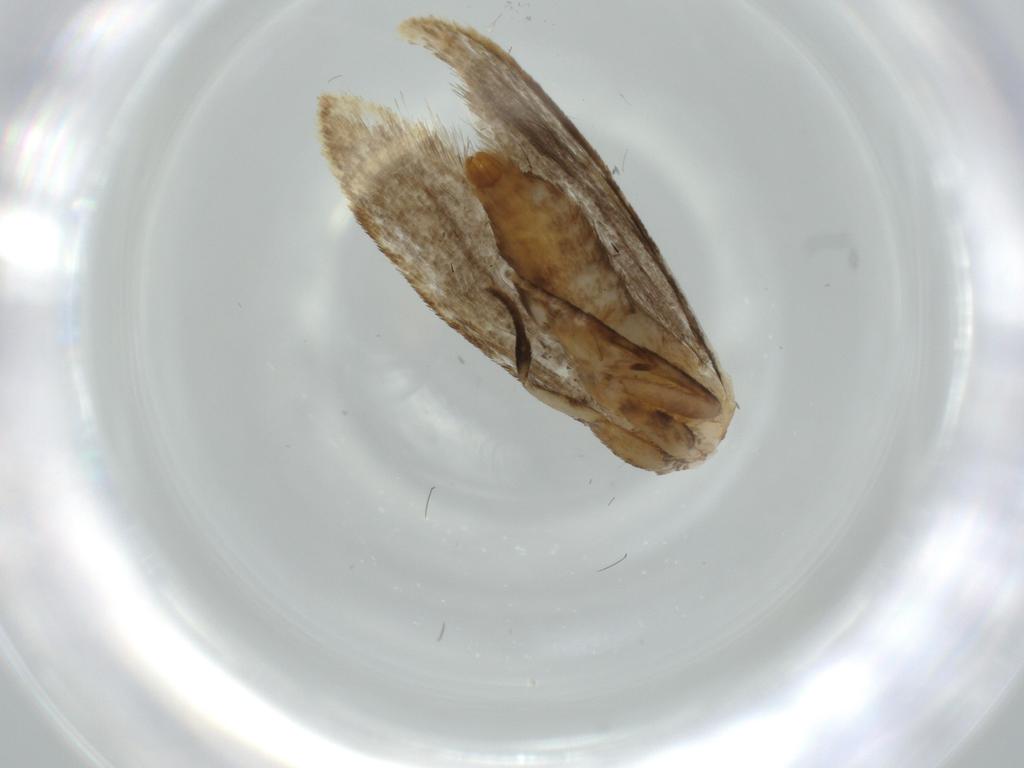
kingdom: Animalia
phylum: Arthropoda
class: Insecta
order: Lepidoptera
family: Tineidae
